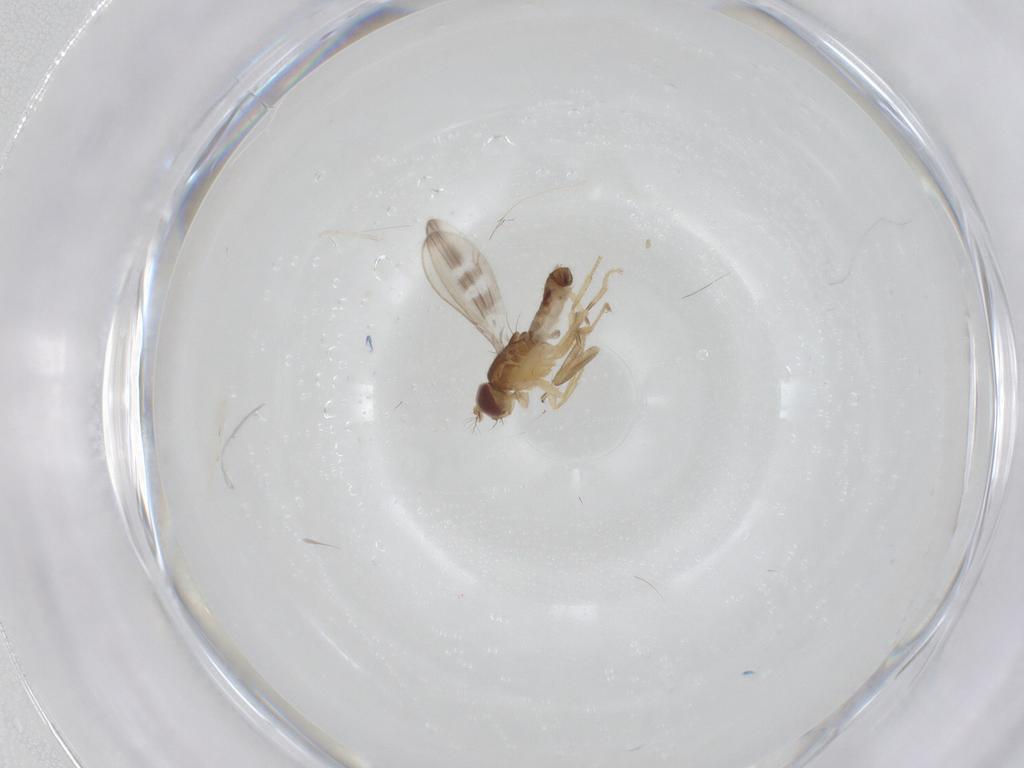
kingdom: Animalia
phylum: Arthropoda
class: Insecta
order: Diptera
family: Periscelididae
